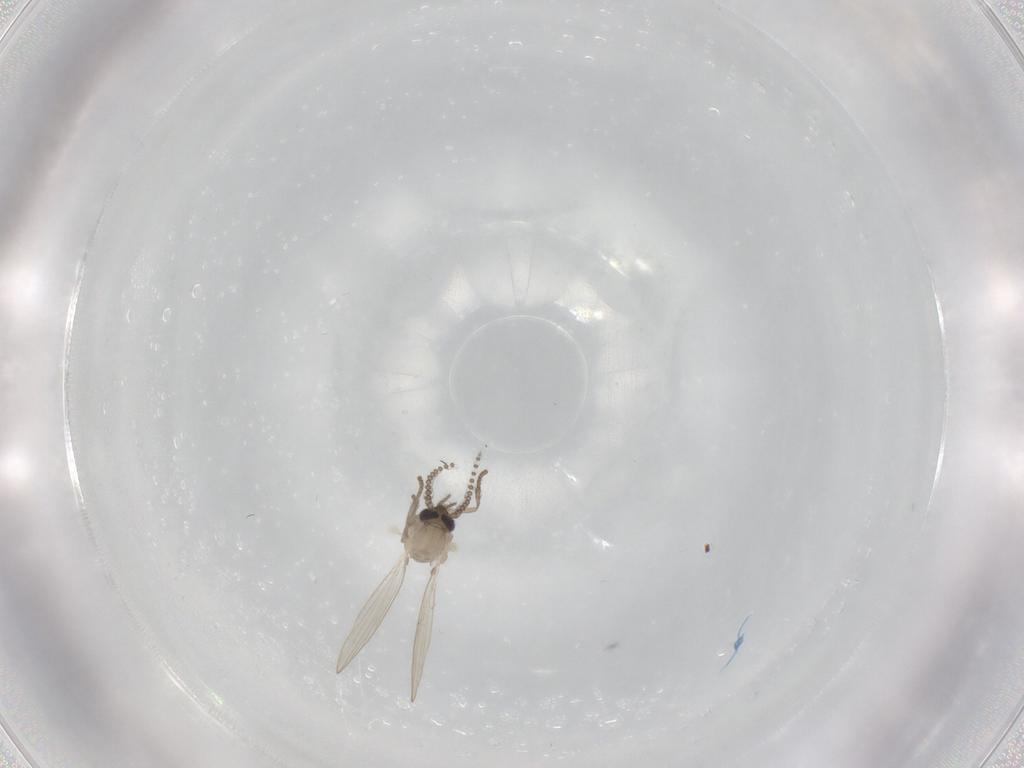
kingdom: Animalia
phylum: Arthropoda
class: Insecta
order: Diptera
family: Psychodidae
